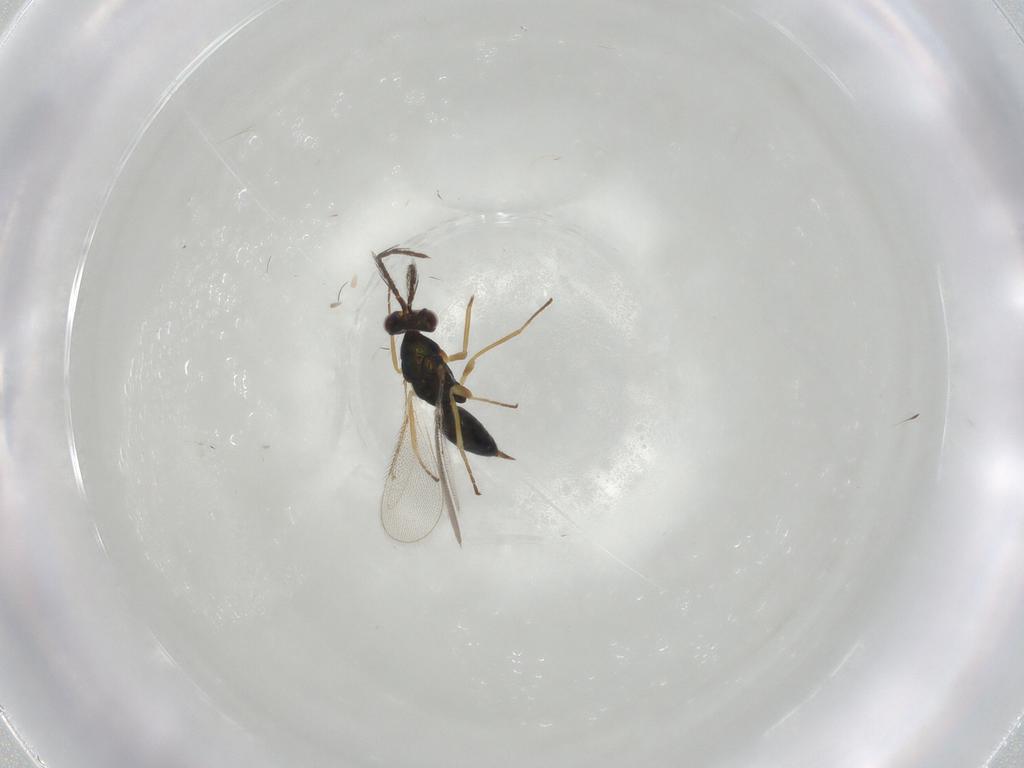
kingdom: Animalia
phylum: Arthropoda
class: Insecta
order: Hymenoptera
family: Eulophidae
